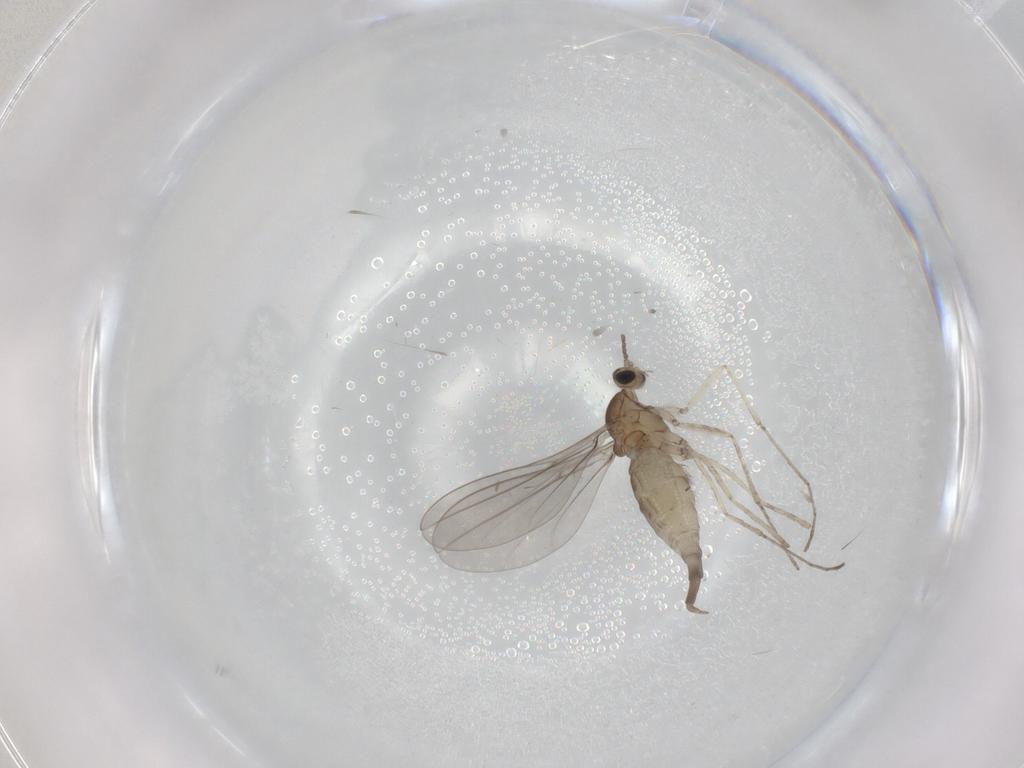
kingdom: Animalia
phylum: Arthropoda
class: Insecta
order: Diptera
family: Cecidomyiidae
